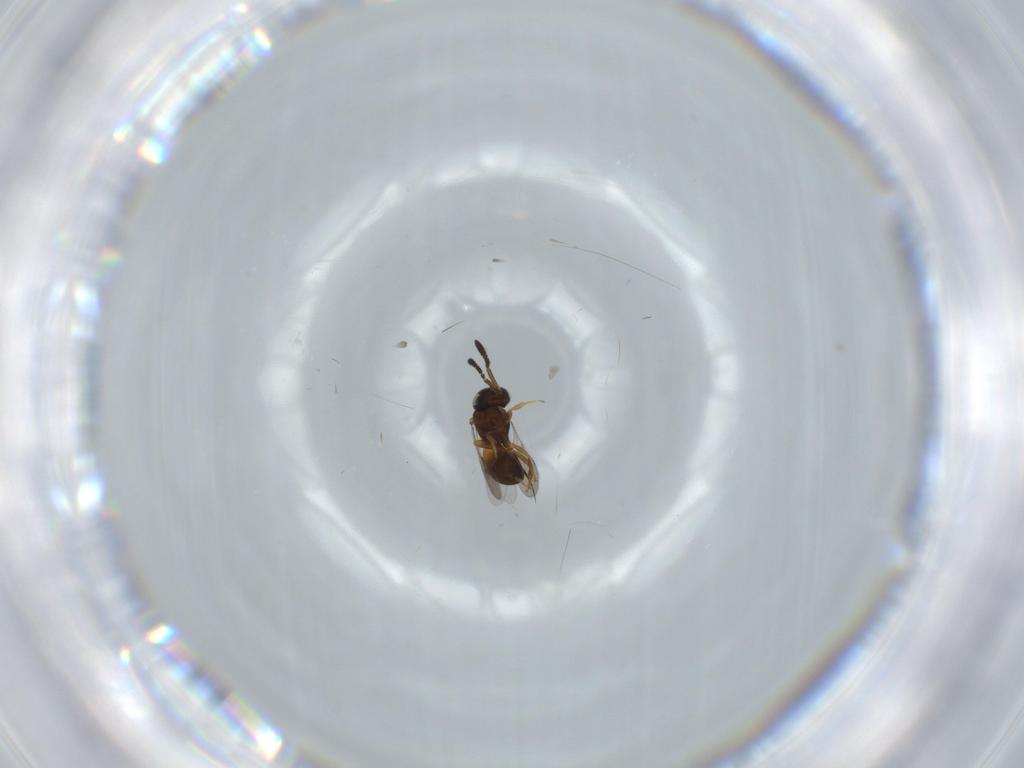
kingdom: Animalia
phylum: Arthropoda
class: Insecta
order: Hymenoptera
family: Scelionidae
